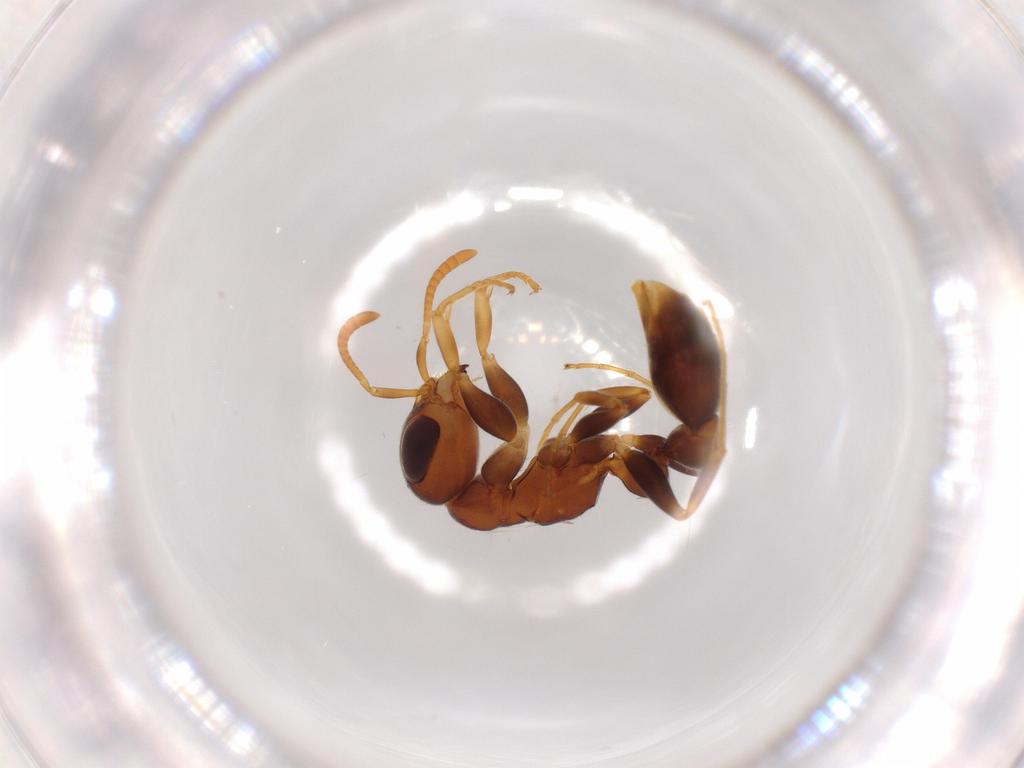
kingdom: Animalia
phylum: Arthropoda
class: Insecta
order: Hymenoptera
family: Formicidae
